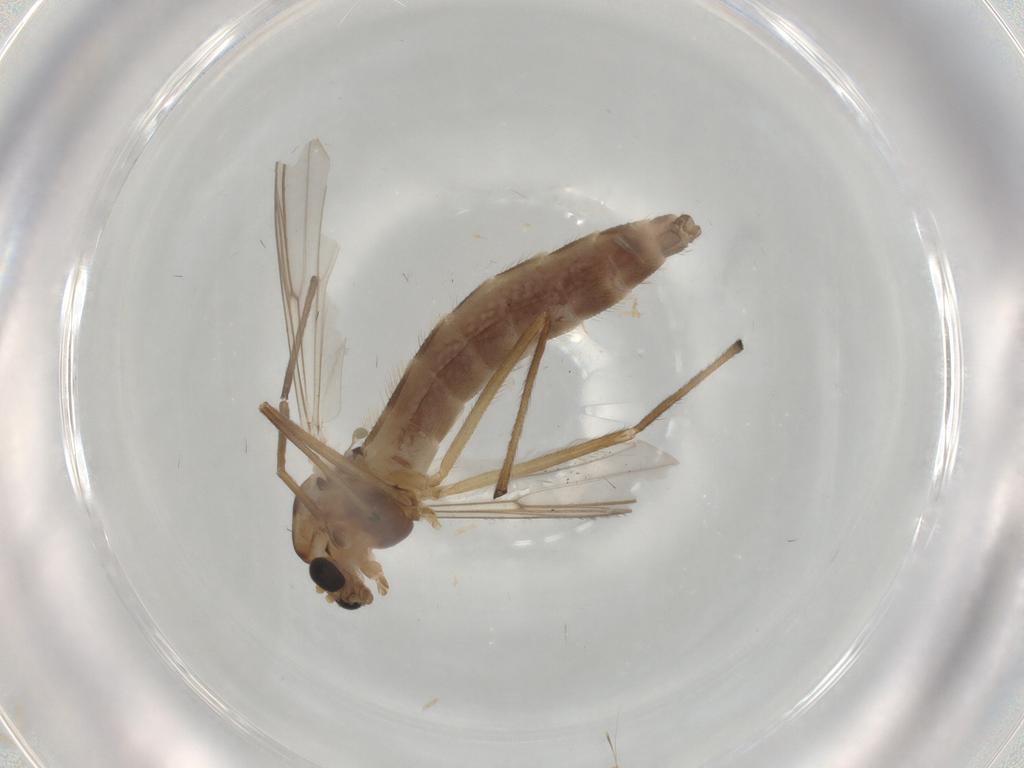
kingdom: Animalia
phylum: Arthropoda
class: Insecta
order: Diptera
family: Chironomidae
